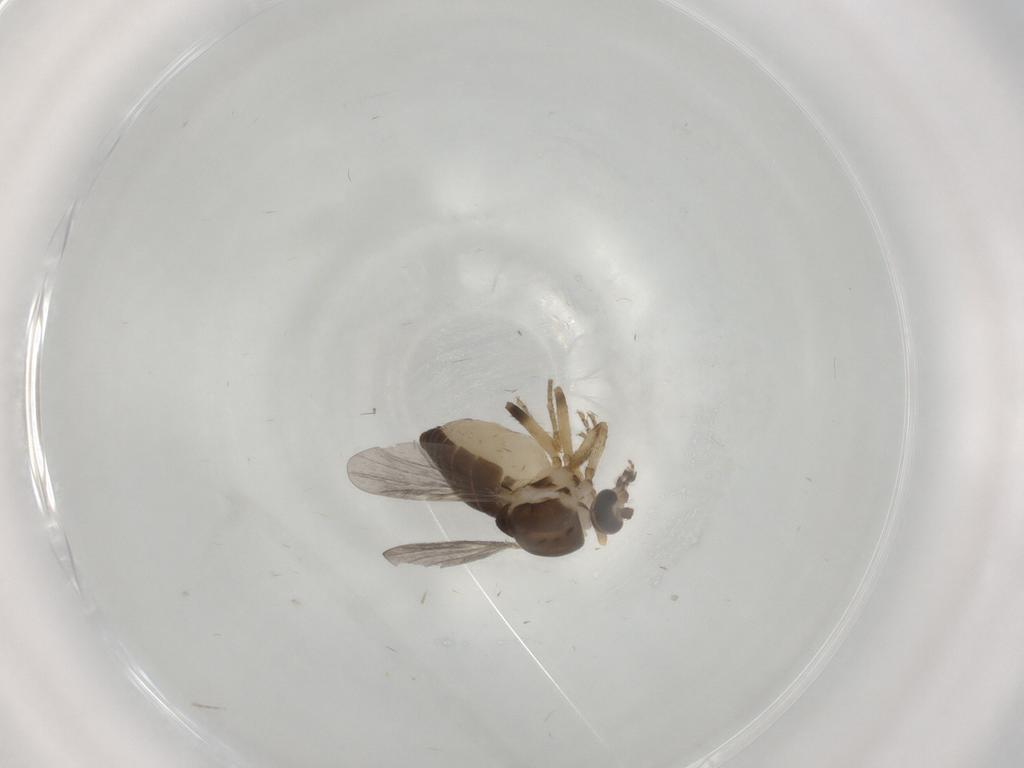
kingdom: Animalia
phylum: Arthropoda
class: Insecta
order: Diptera
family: Ceratopogonidae
